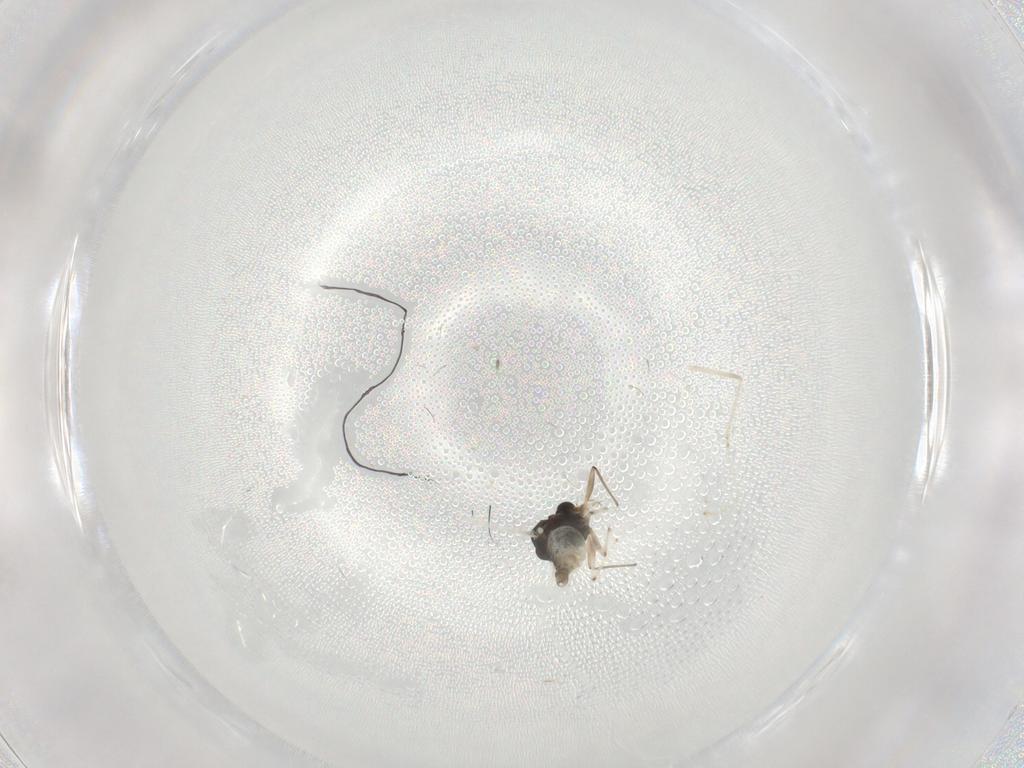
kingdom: Animalia
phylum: Arthropoda
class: Insecta
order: Diptera
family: Chironomidae
